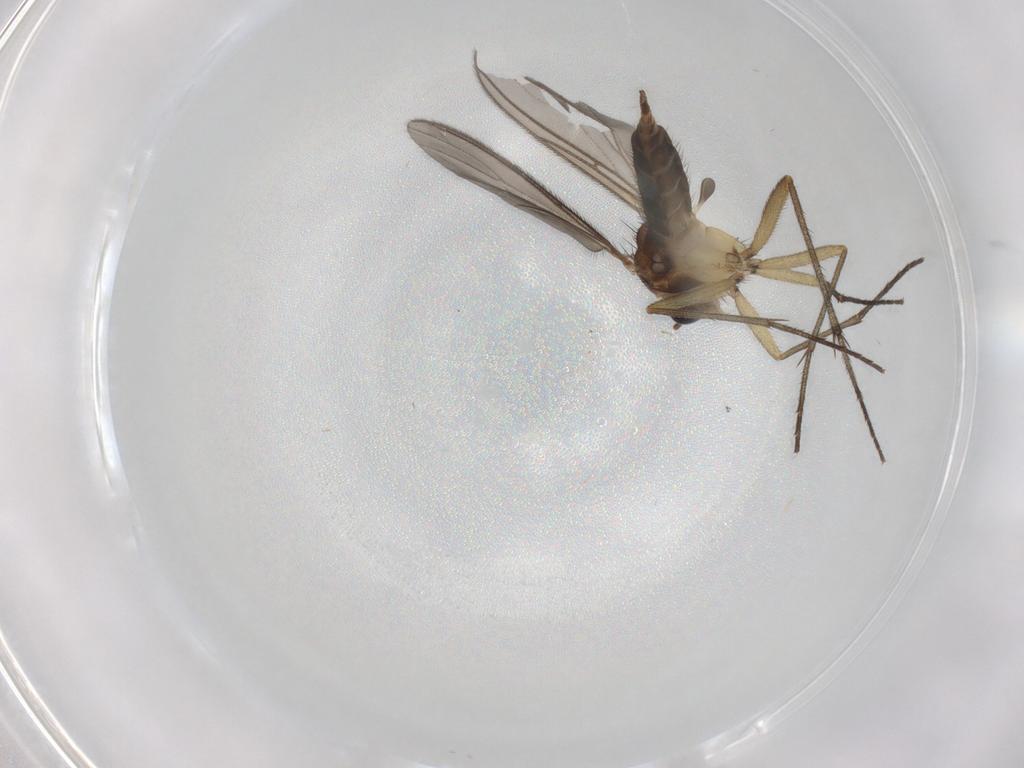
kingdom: Animalia
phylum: Arthropoda
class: Insecta
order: Diptera
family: Sciaridae
